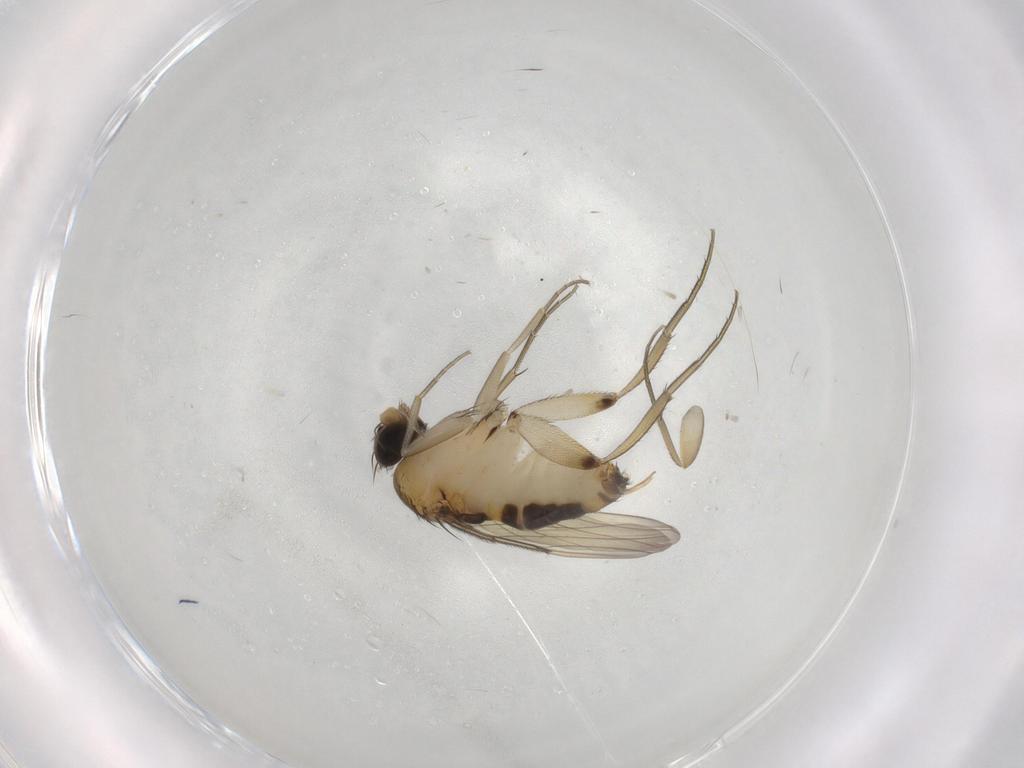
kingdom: Animalia
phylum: Arthropoda
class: Insecta
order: Diptera
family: Phoridae
